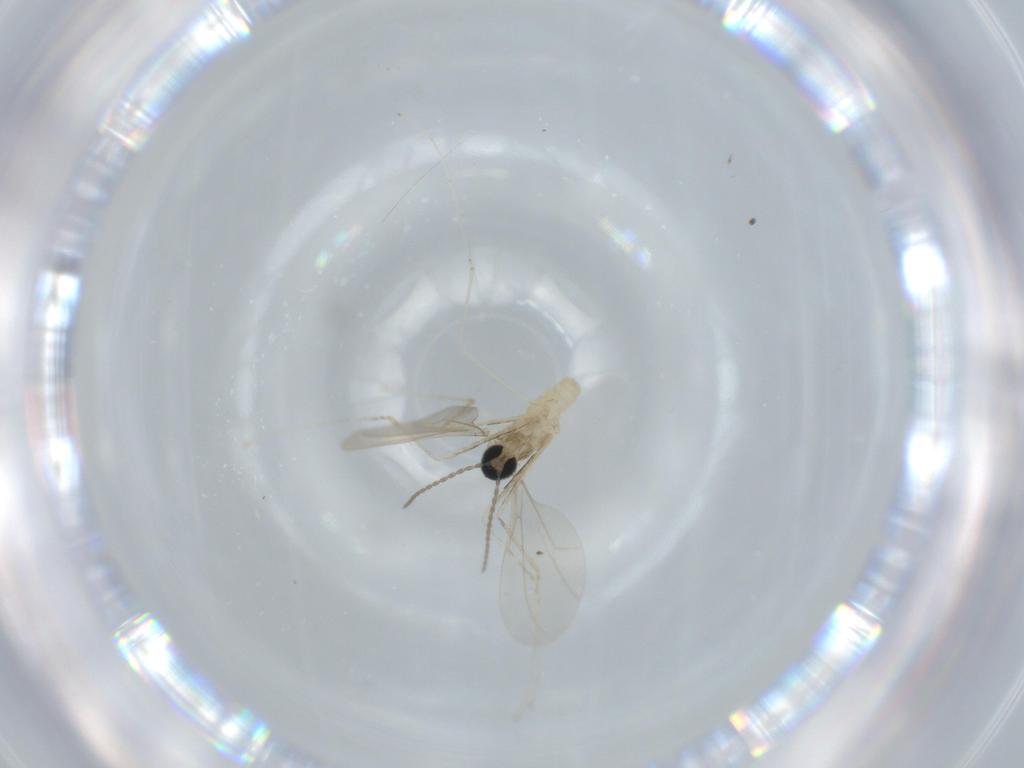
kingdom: Animalia
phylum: Arthropoda
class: Insecta
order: Diptera
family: Cecidomyiidae
